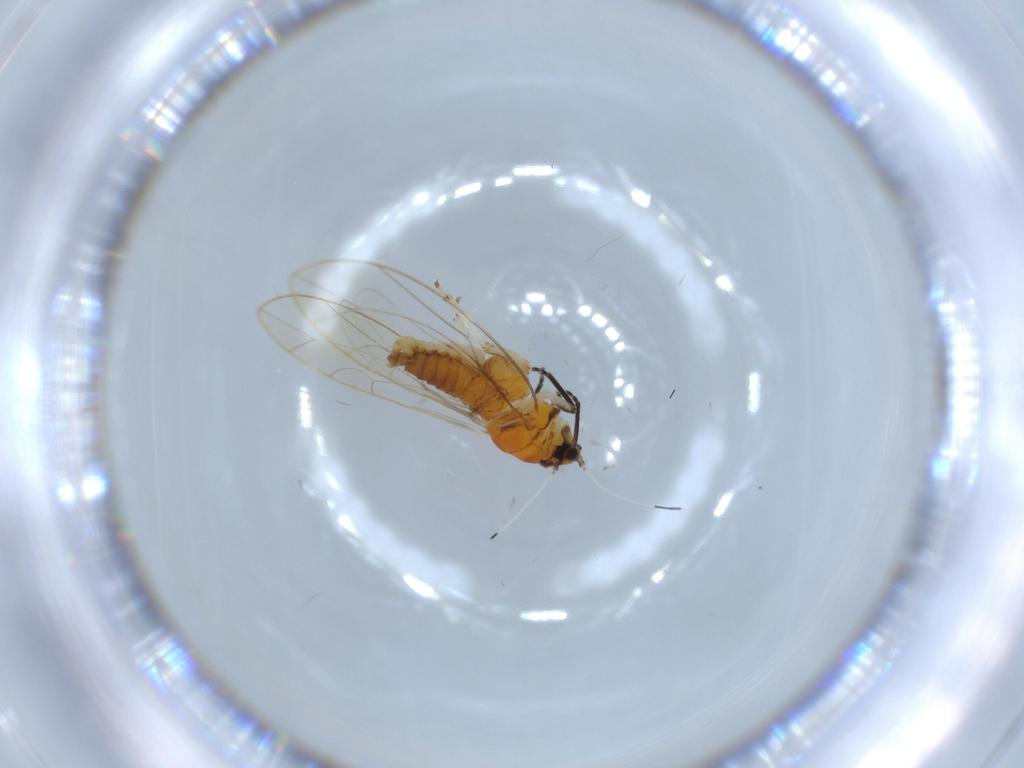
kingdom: Animalia
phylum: Arthropoda
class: Insecta
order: Hemiptera
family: Triozidae
